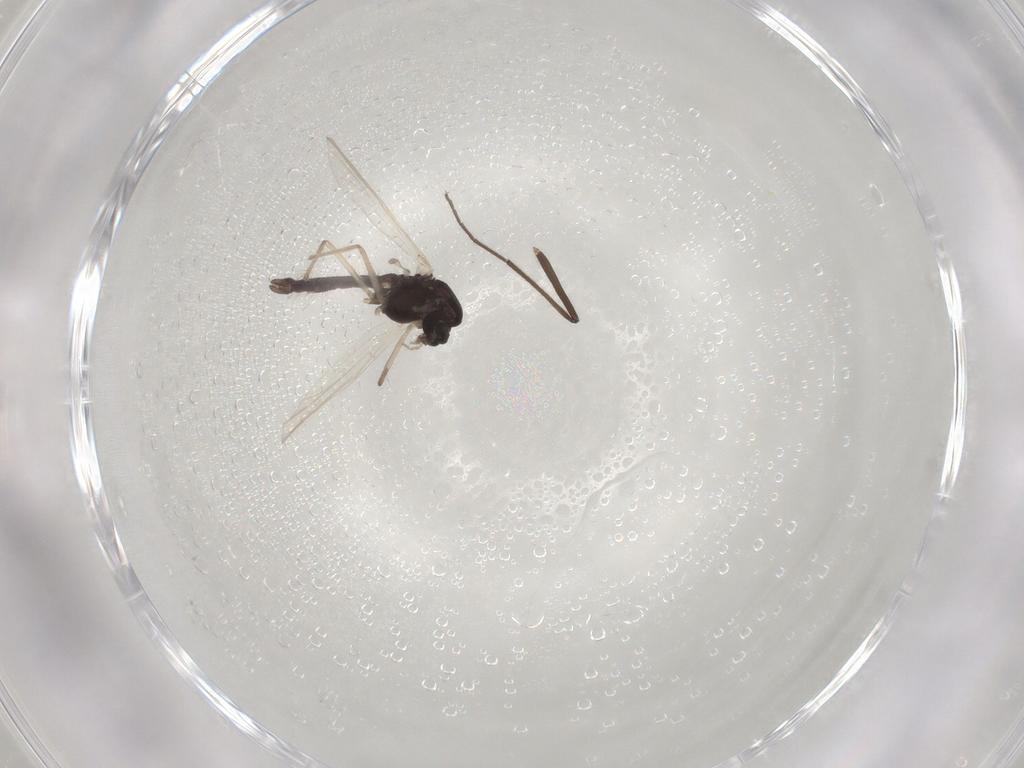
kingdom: Animalia
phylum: Arthropoda
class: Insecta
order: Diptera
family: Chironomidae
